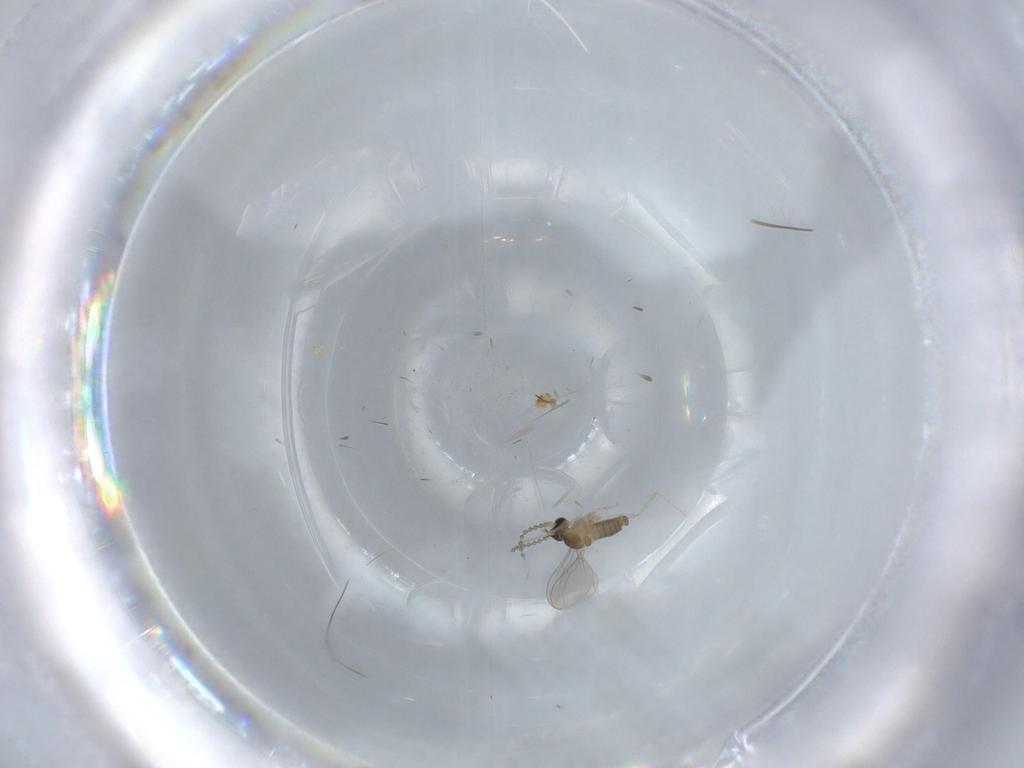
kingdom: Animalia
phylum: Arthropoda
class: Insecta
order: Diptera
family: Cecidomyiidae
